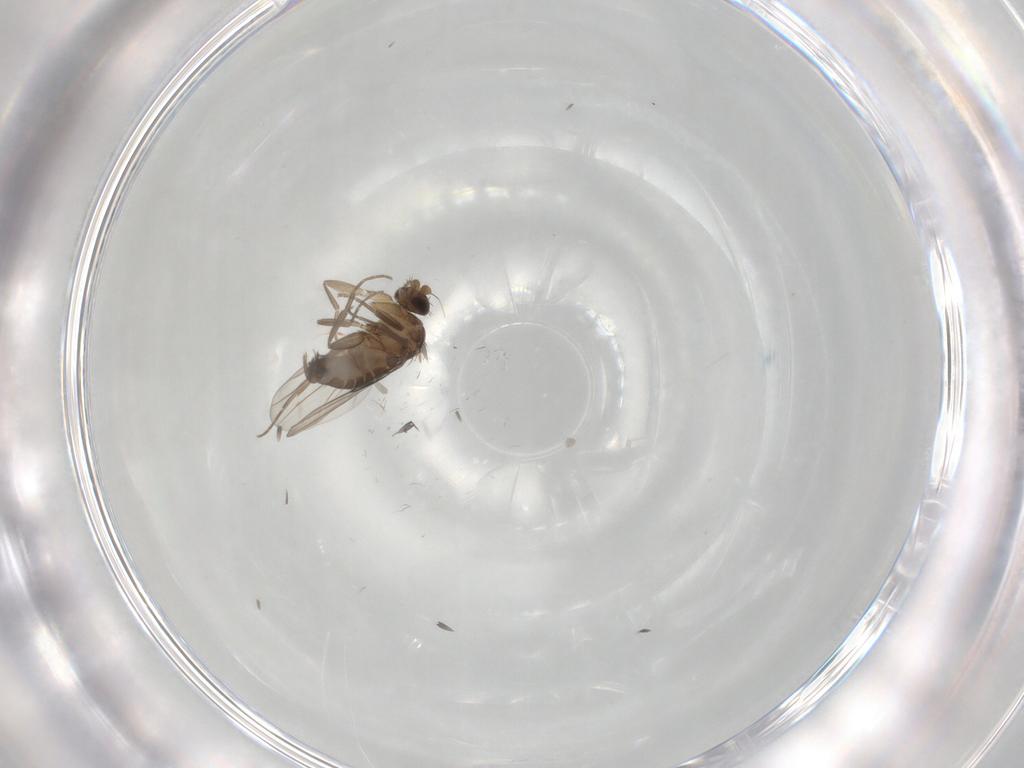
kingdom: Animalia
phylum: Arthropoda
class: Insecta
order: Diptera
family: Phoridae
